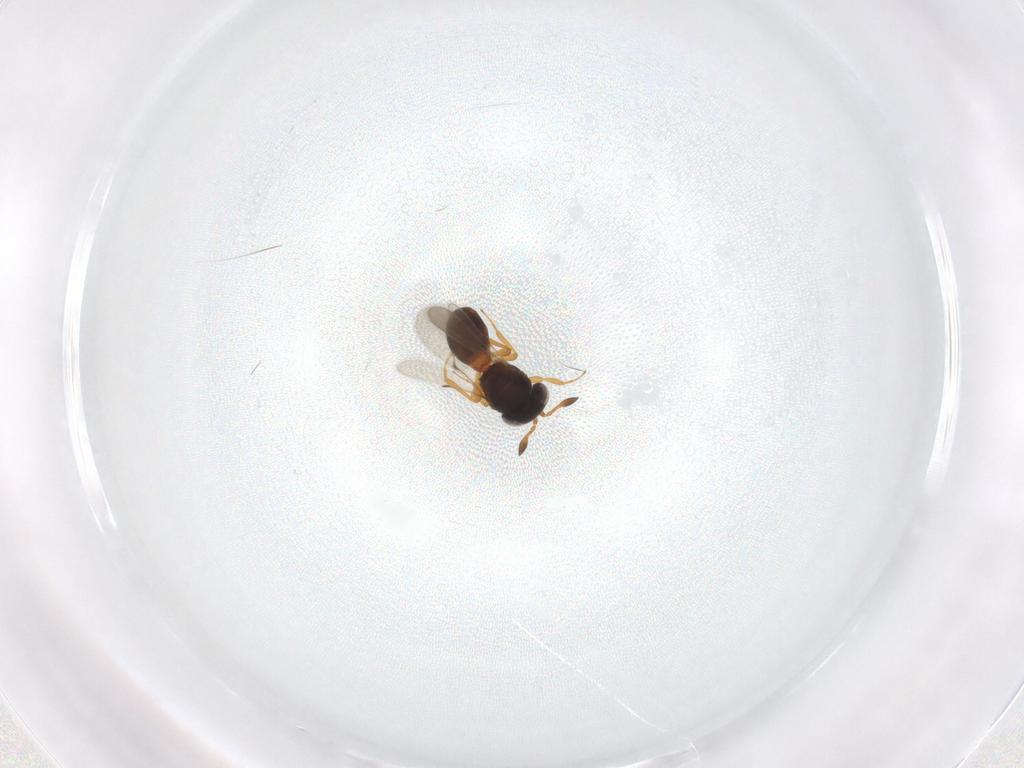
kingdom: Animalia
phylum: Arthropoda
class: Insecta
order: Hymenoptera
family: Scelionidae
